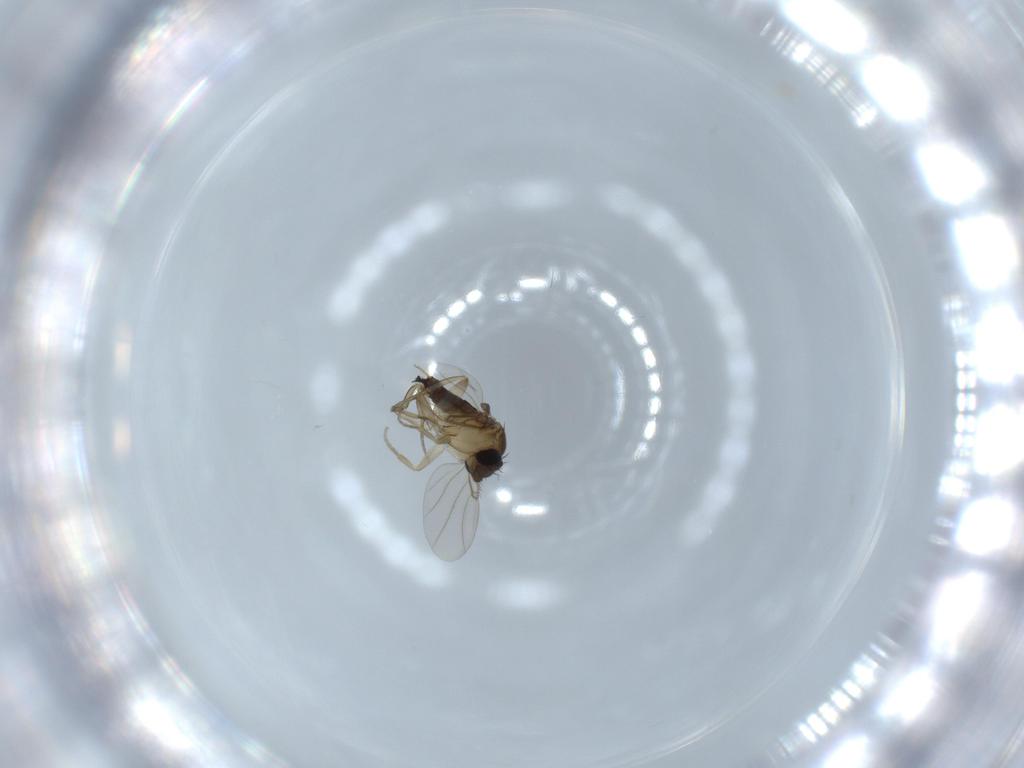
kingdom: Animalia
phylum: Arthropoda
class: Insecta
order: Diptera
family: Phoridae
